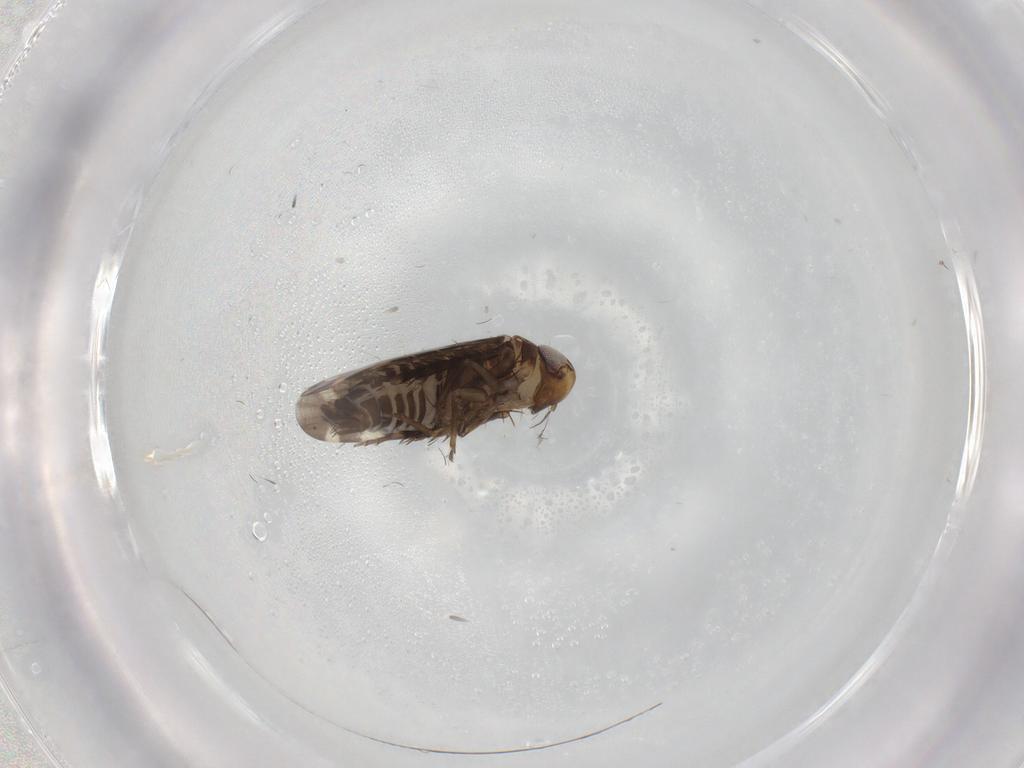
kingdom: Animalia
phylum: Arthropoda
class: Insecta
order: Hemiptera
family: Cicadellidae
